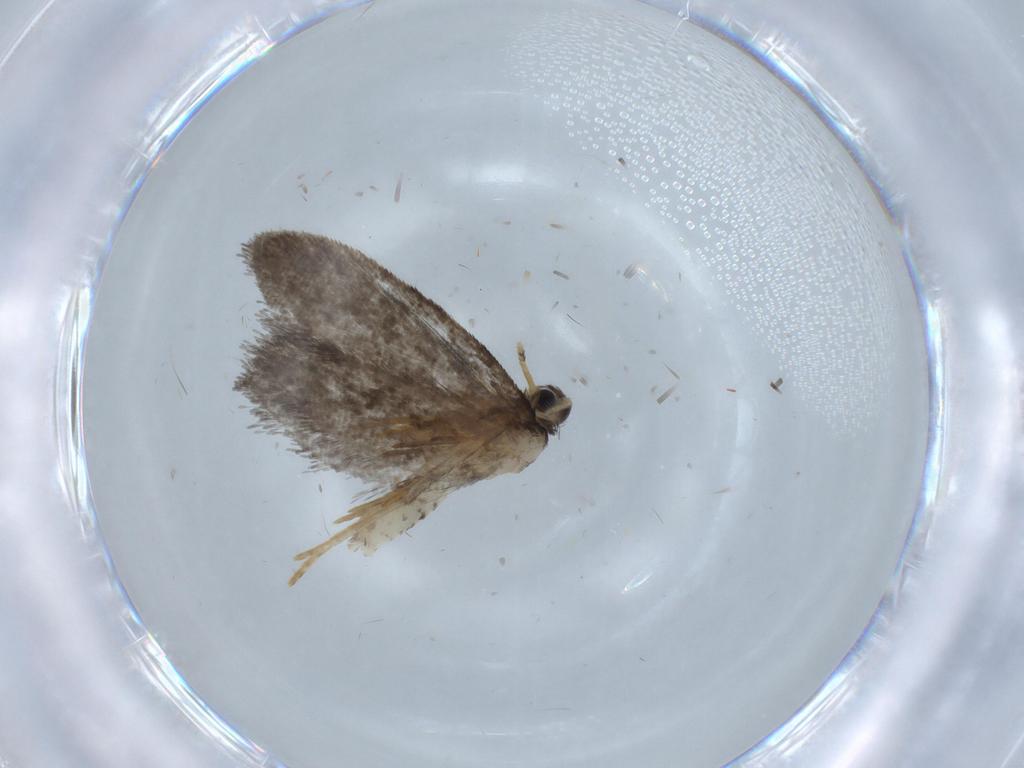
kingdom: Animalia
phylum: Arthropoda
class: Insecta
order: Lepidoptera
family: Psychidae
